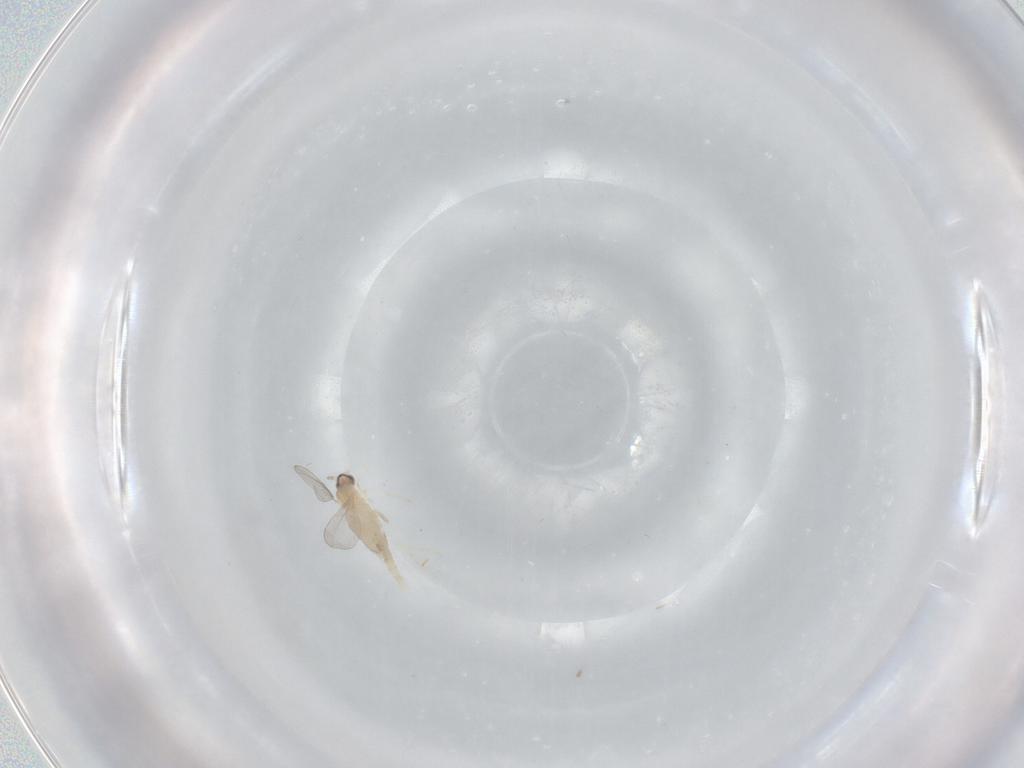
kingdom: Animalia
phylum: Arthropoda
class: Insecta
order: Diptera
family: Cecidomyiidae
